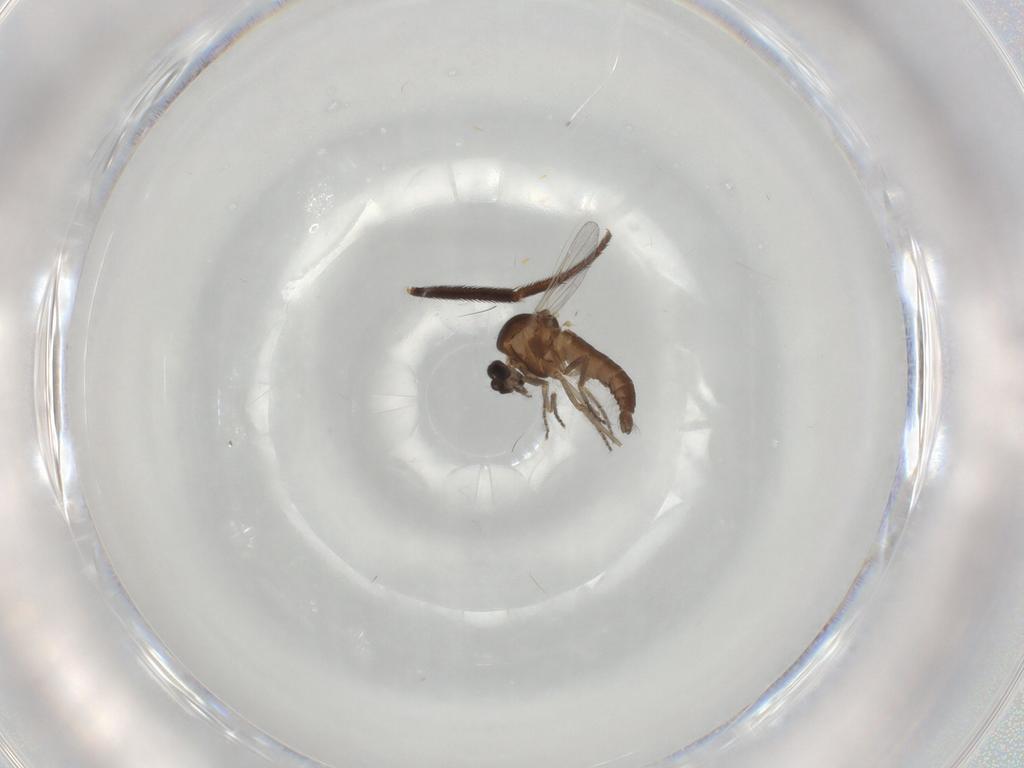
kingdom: Animalia
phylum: Arthropoda
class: Insecta
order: Diptera
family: Ceratopogonidae
